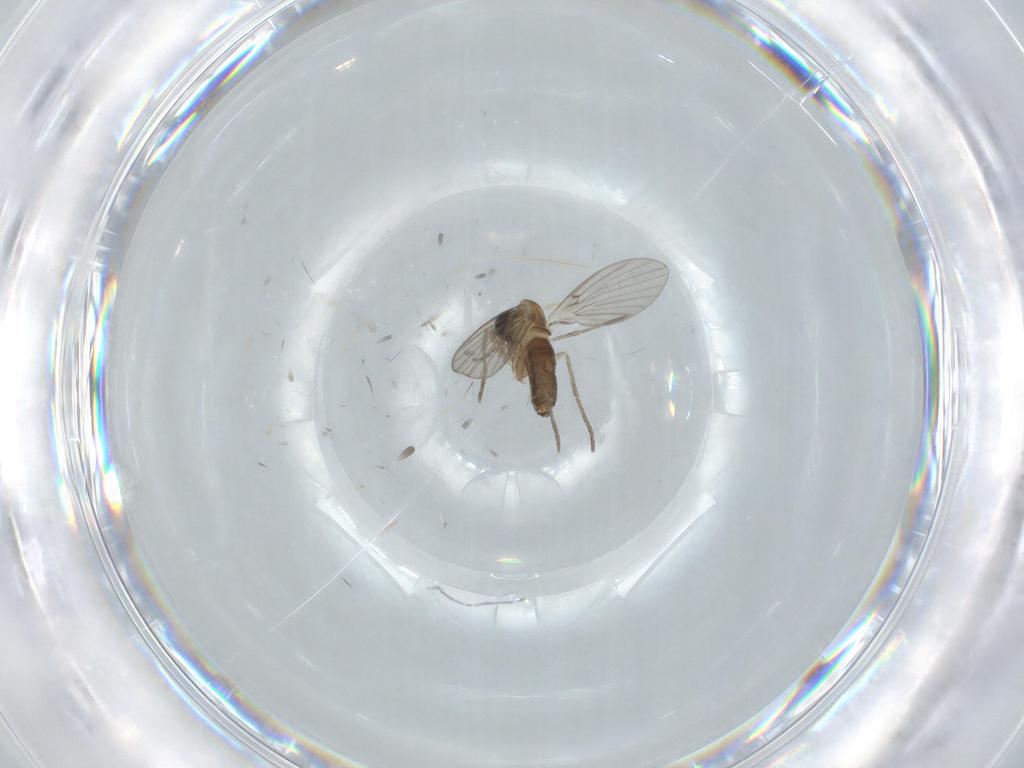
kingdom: Animalia
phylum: Arthropoda
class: Insecta
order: Diptera
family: Psychodidae
